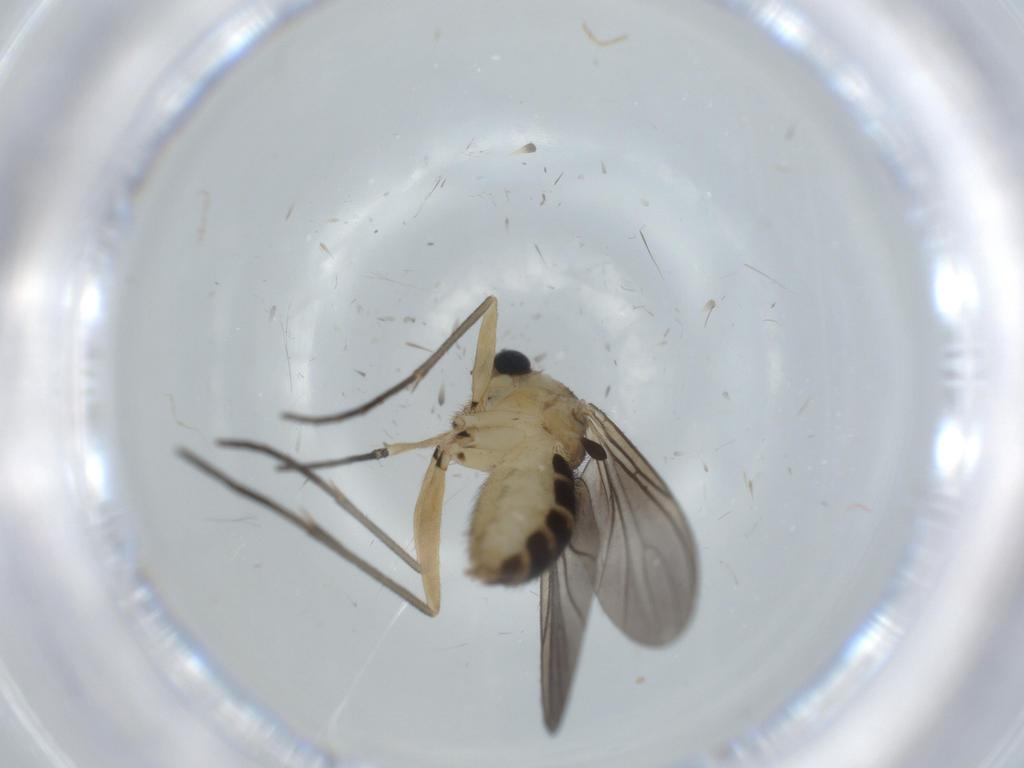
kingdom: Animalia
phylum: Arthropoda
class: Insecta
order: Diptera
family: Sciaridae
